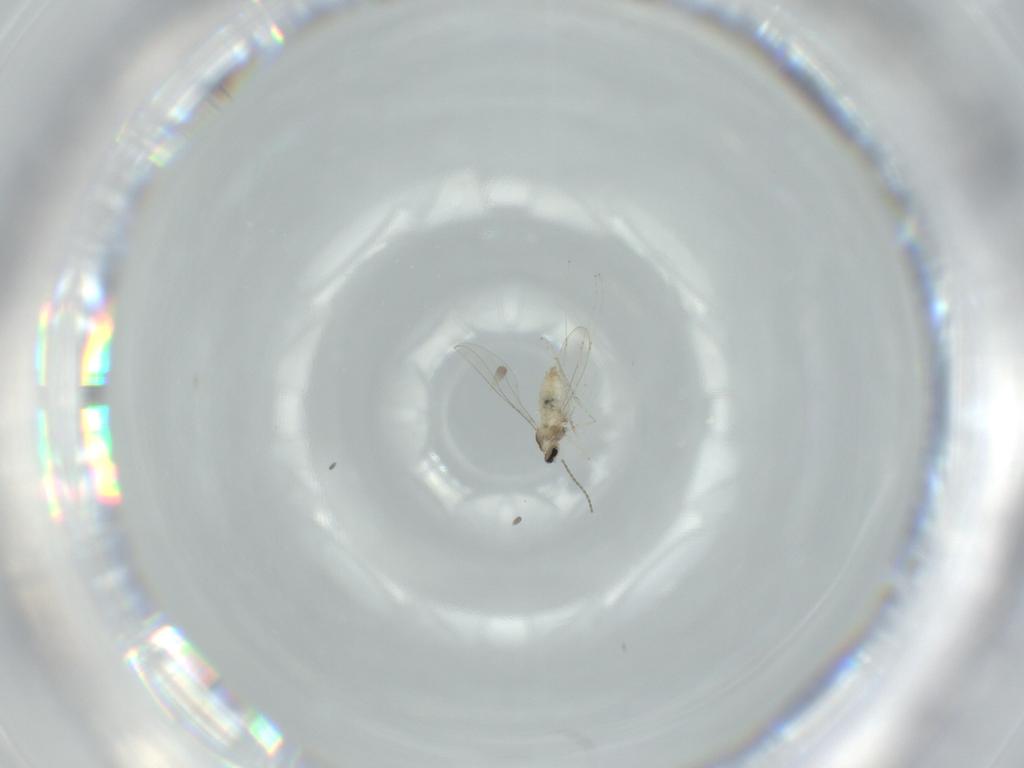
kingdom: Animalia
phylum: Arthropoda
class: Insecta
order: Diptera
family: Cecidomyiidae
